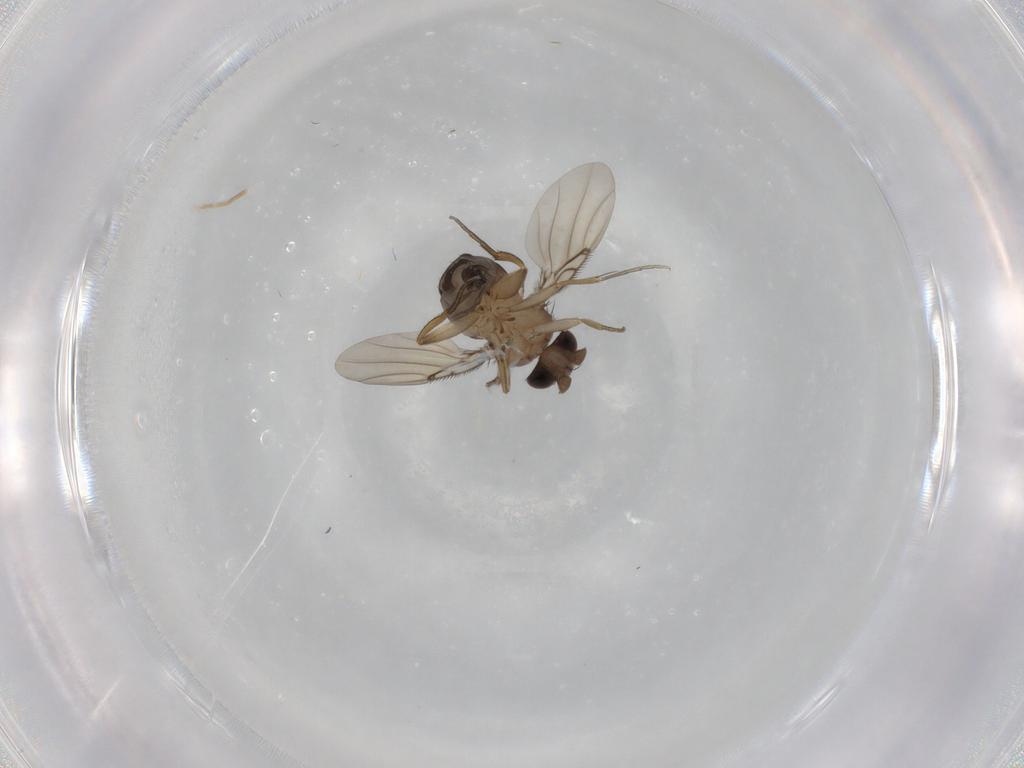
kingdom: Animalia
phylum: Arthropoda
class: Insecta
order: Diptera
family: Phoridae
